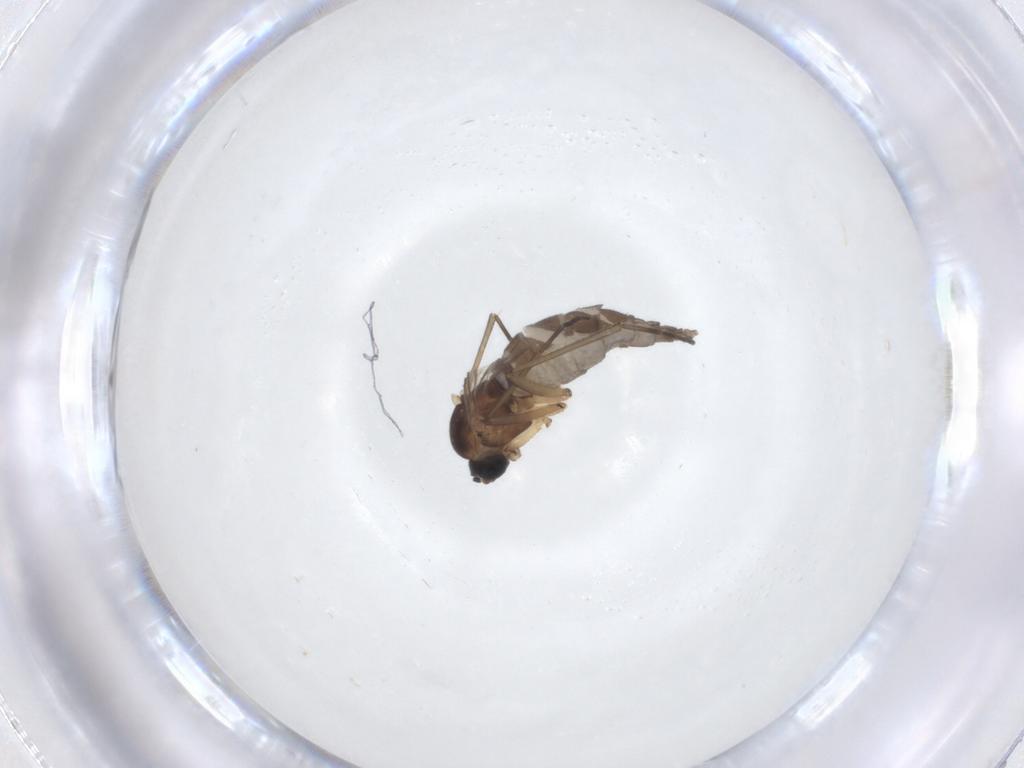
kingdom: Animalia
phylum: Arthropoda
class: Insecta
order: Diptera
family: Sciaridae
